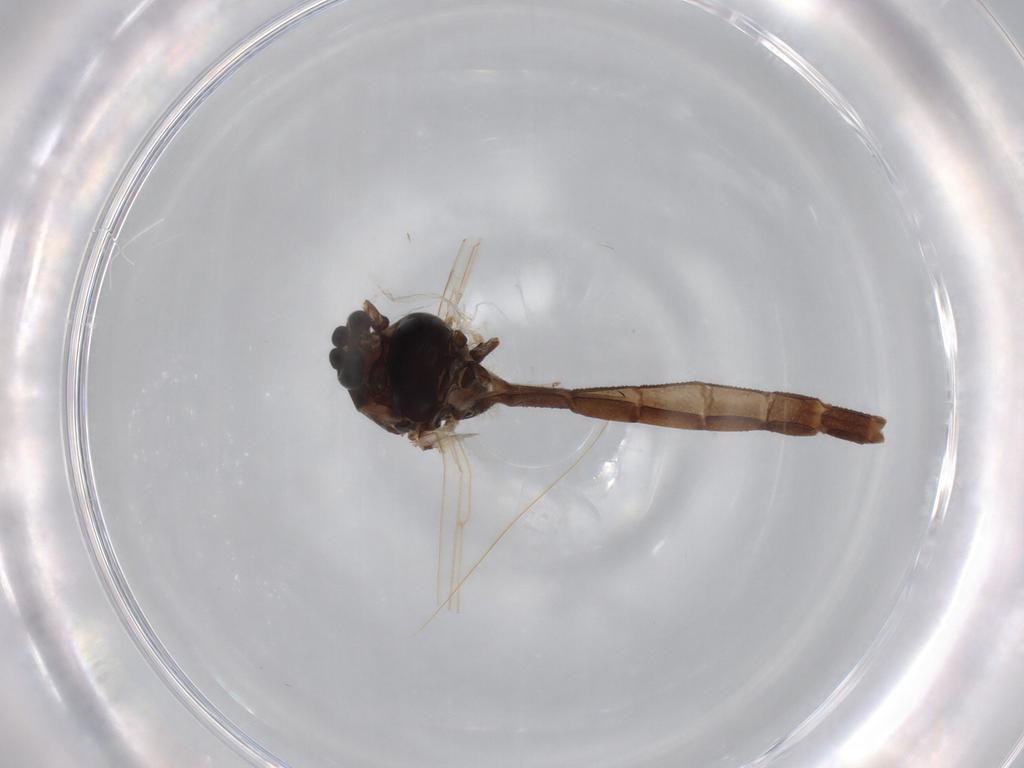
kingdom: Animalia
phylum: Arthropoda
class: Insecta
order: Diptera
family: Chironomidae
